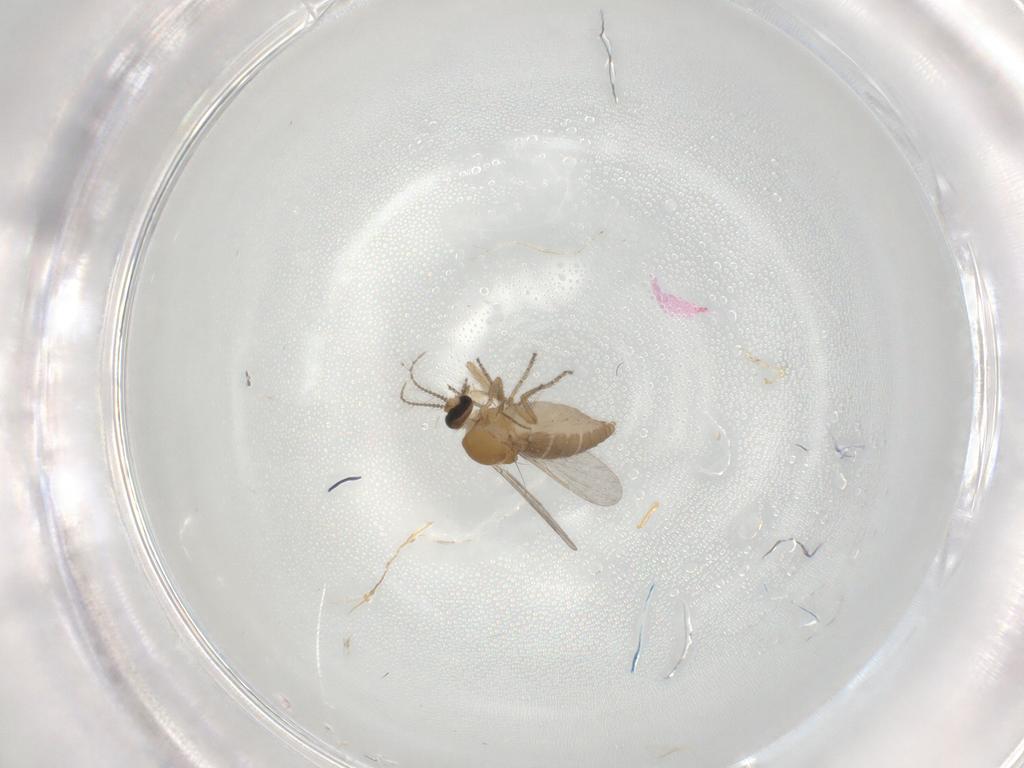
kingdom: Animalia
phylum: Arthropoda
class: Insecta
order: Diptera
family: Ceratopogonidae
